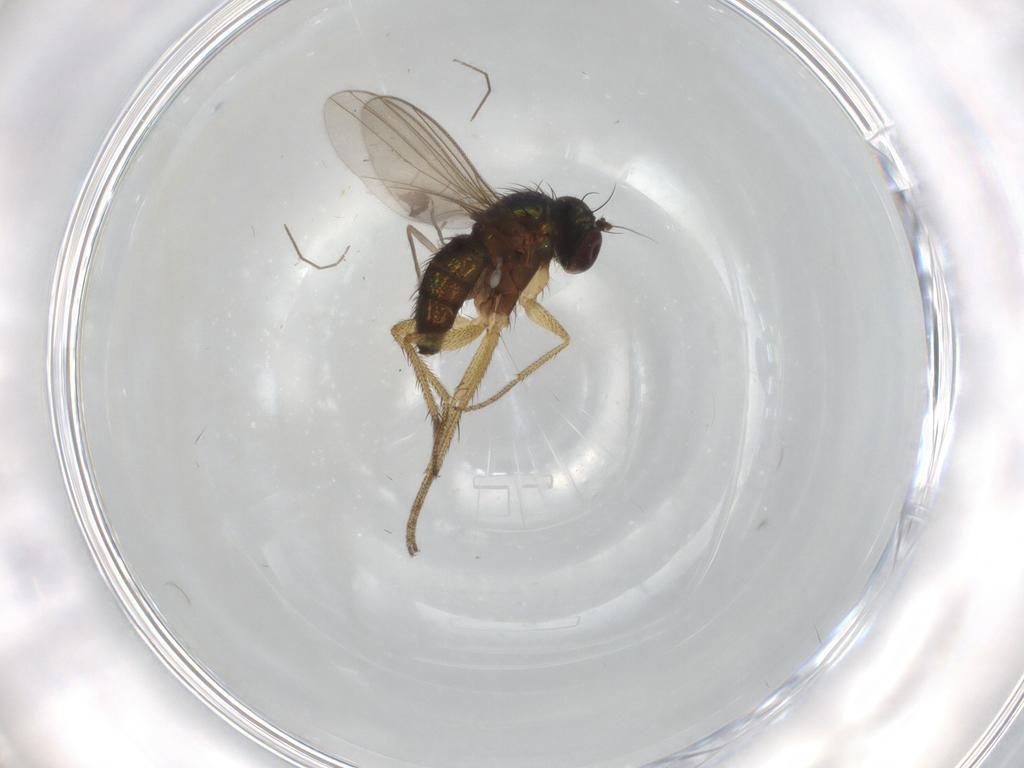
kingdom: Animalia
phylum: Arthropoda
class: Insecta
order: Diptera
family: Chironomidae
